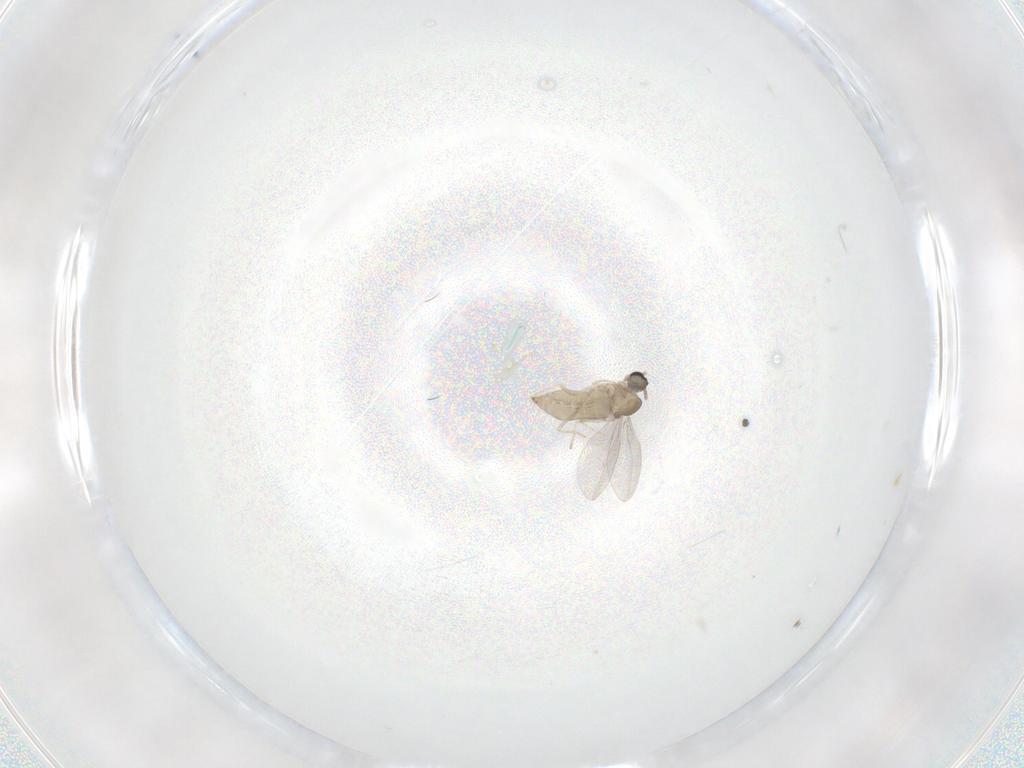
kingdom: Animalia
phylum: Arthropoda
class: Insecta
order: Diptera
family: Cecidomyiidae
